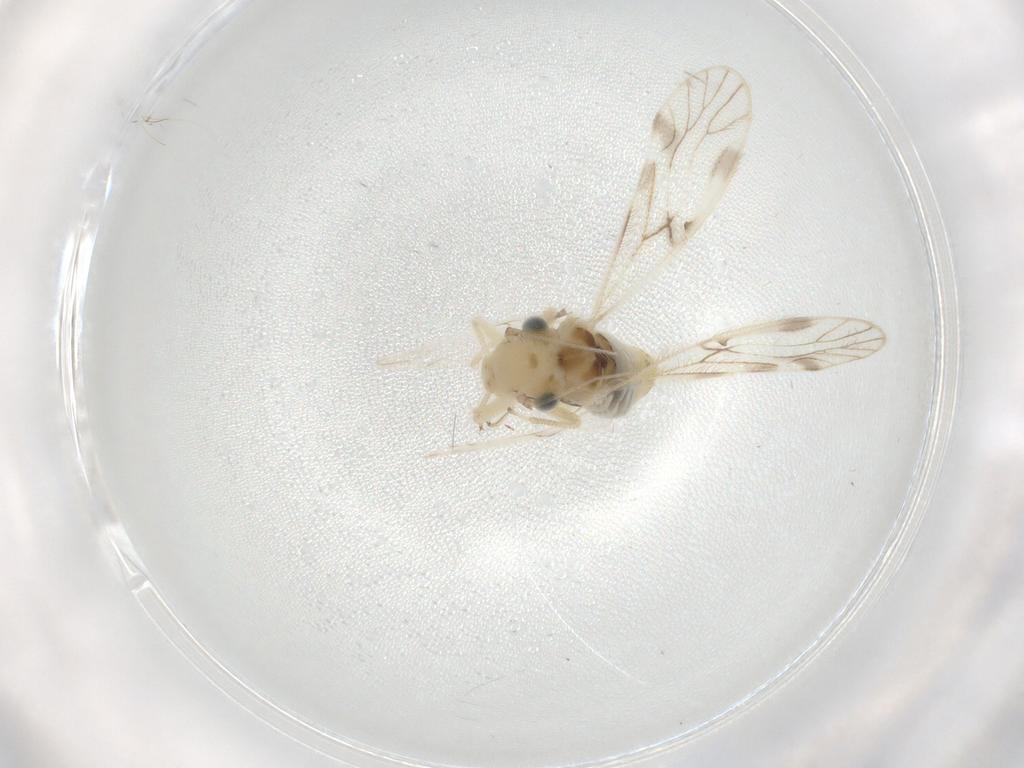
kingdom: Animalia
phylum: Arthropoda
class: Insecta
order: Psocodea
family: Caeciliusidae
